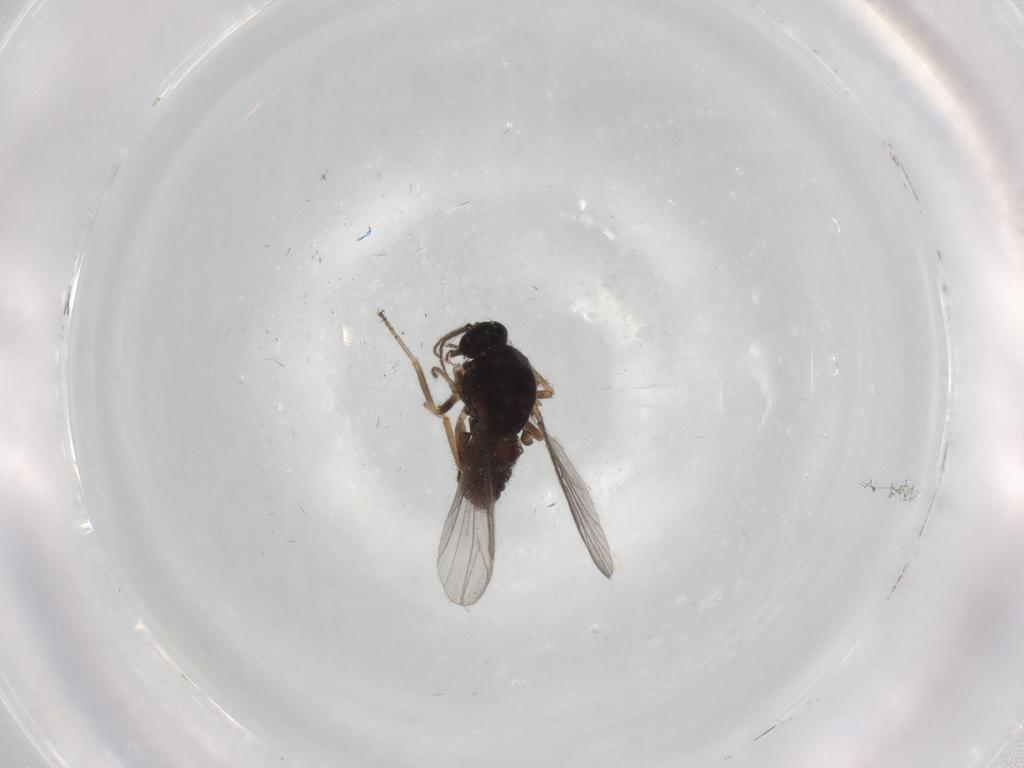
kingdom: Animalia
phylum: Arthropoda
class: Insecta
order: Diptera
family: Ceratopogonidae
